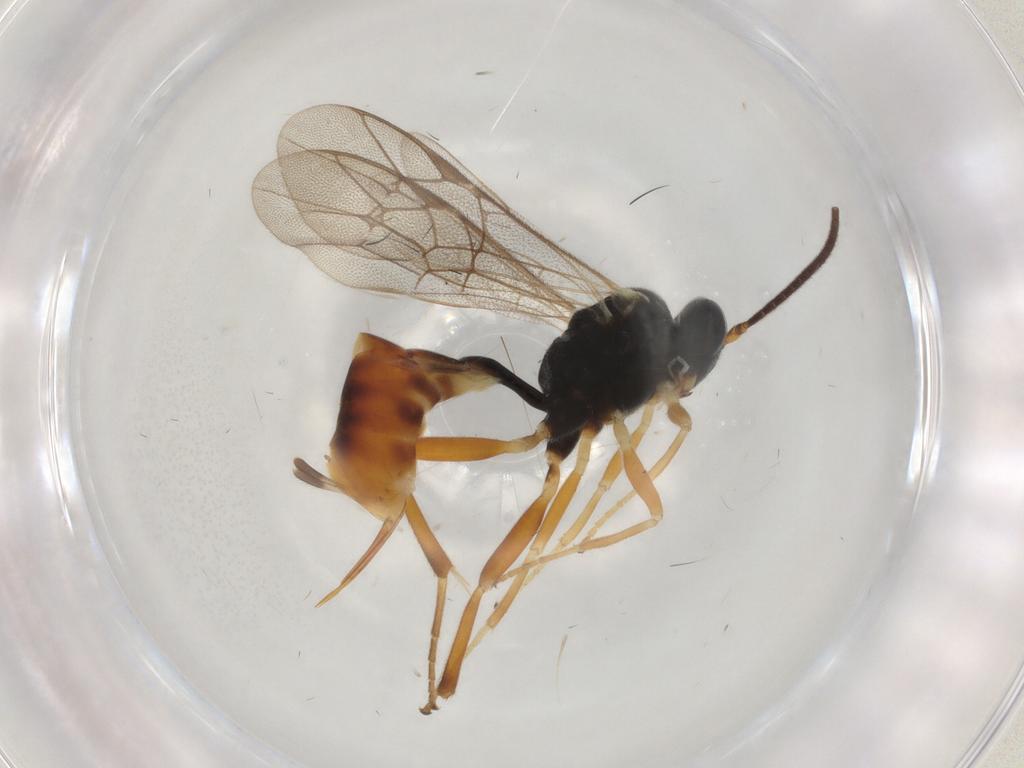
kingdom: Animalia
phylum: Arthropoda
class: Insecta
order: Hymenoptera
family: Ichneumonidae
